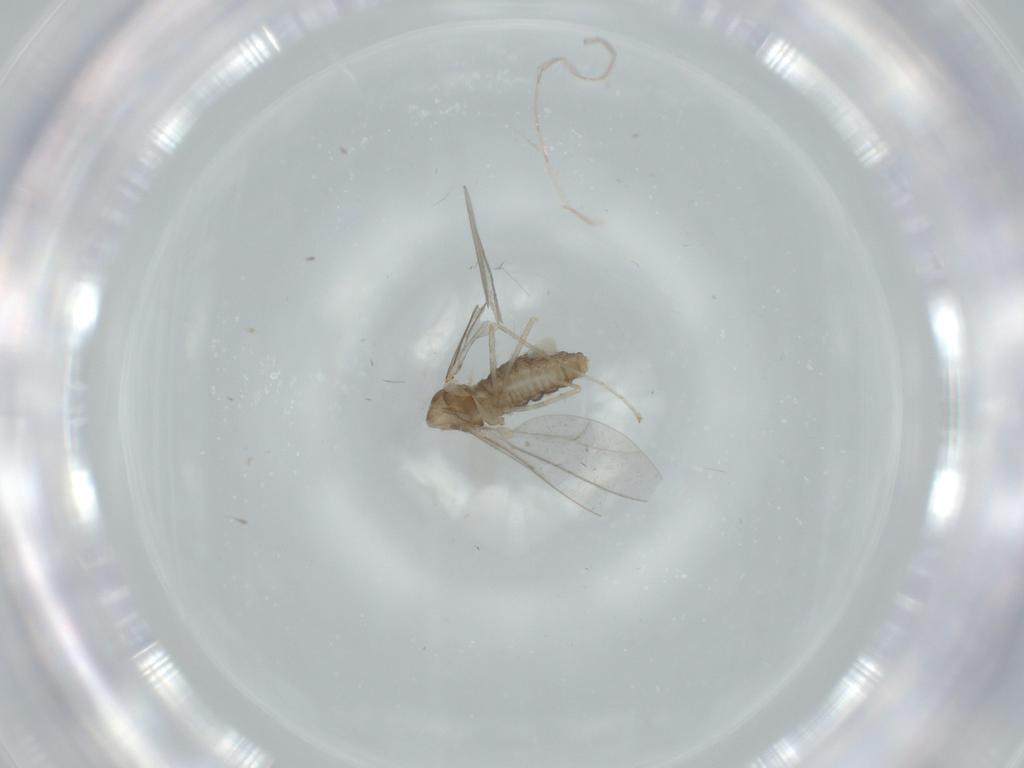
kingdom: Animalia
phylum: Arthropoda
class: Insecta
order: Diptera
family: Cecidomyiidae
